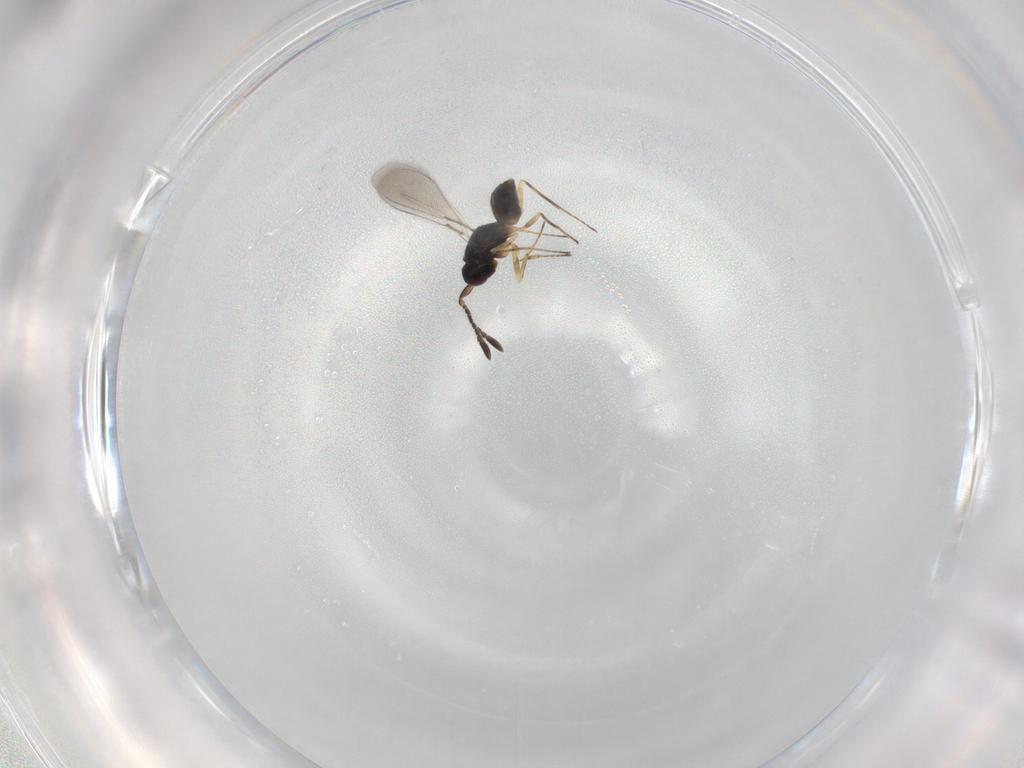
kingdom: Animalia
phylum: Arthropoda
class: Insecta
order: Hymenoptera
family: Mymaridae
